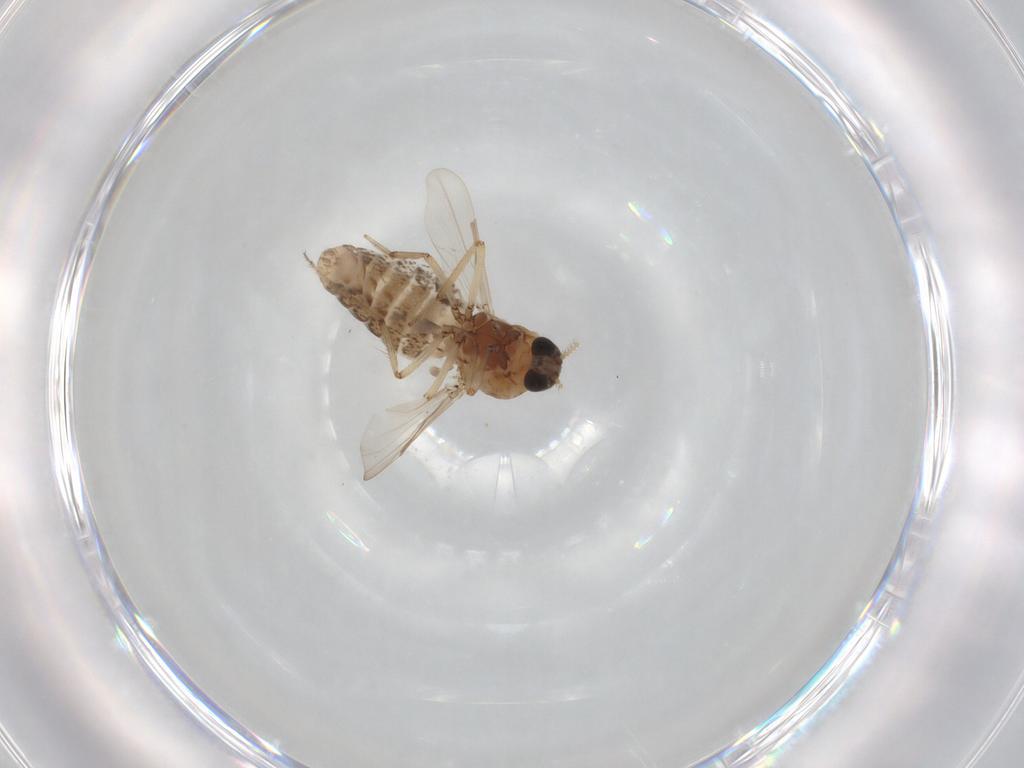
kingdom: Animalia
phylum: Arthropoda
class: Insecta
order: Diptera
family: Ceratopogonidae
